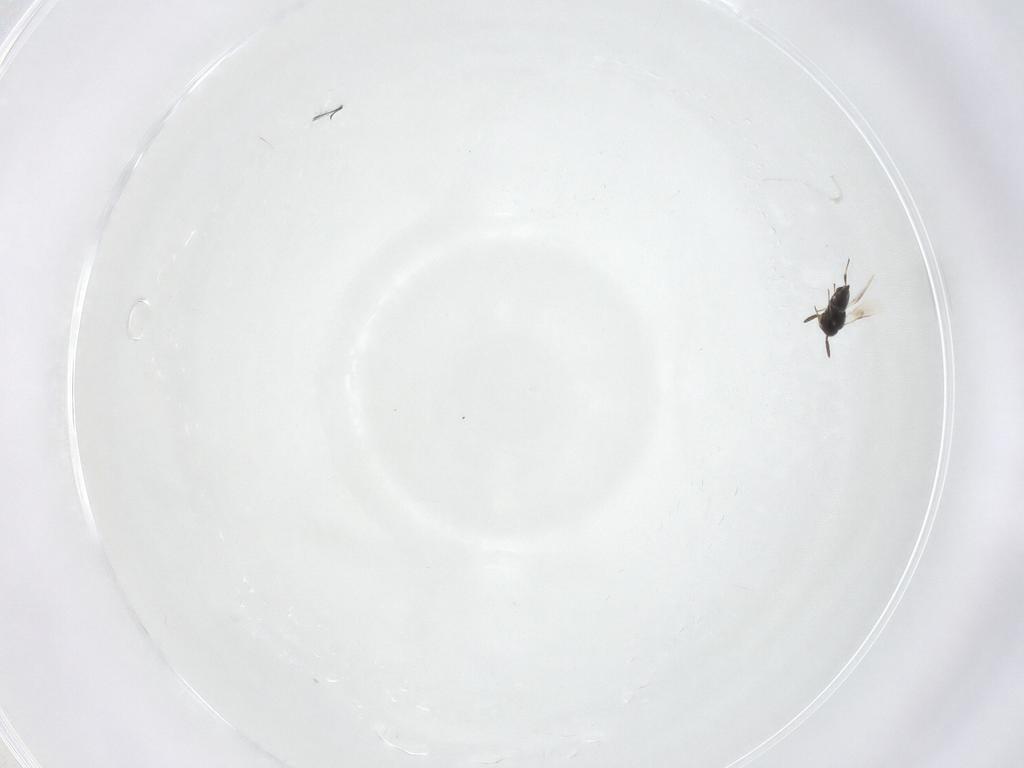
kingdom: Animalia
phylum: Arthropoda
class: Insecta
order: Hymenoptera
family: Scelionidae
